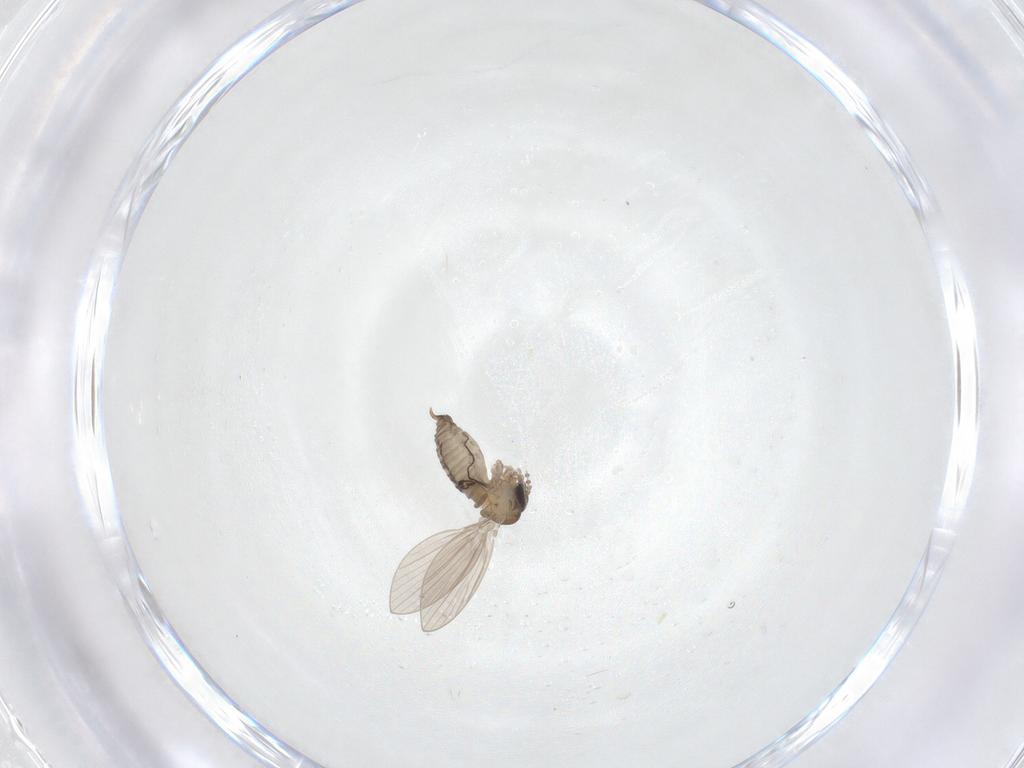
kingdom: Animalia
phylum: Arthropoda
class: Insecta
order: Diptera
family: Psychodidae
